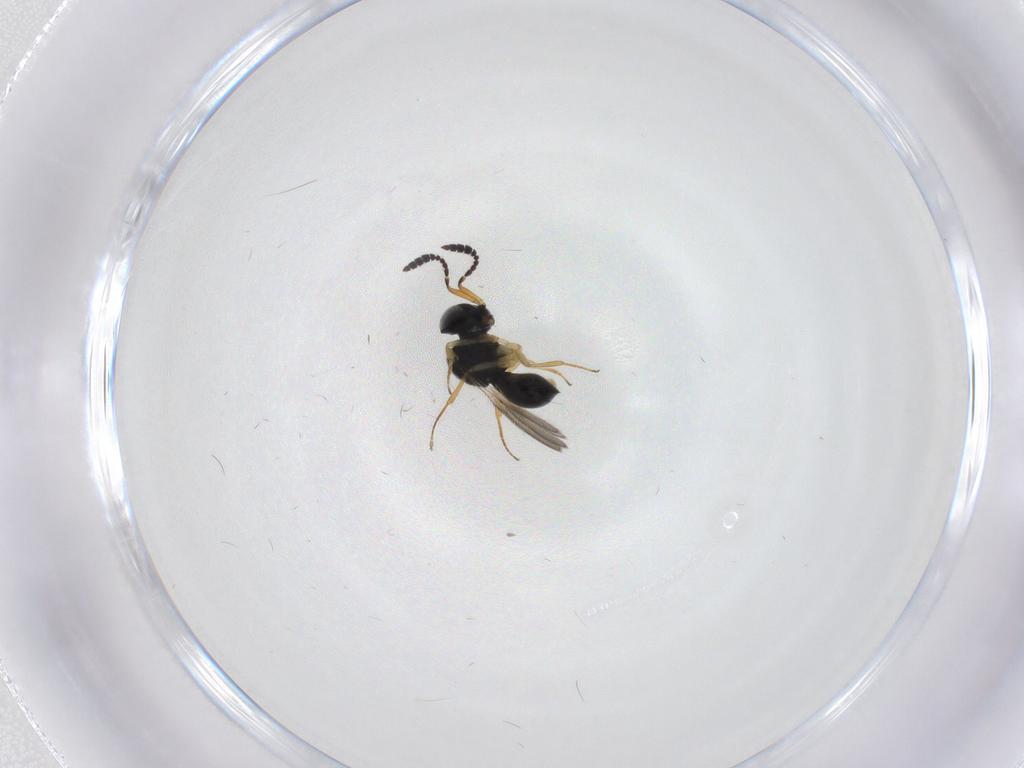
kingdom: Animalia
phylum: Arthropoda
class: Insecta
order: Hymenoptera
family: Scelionidae
